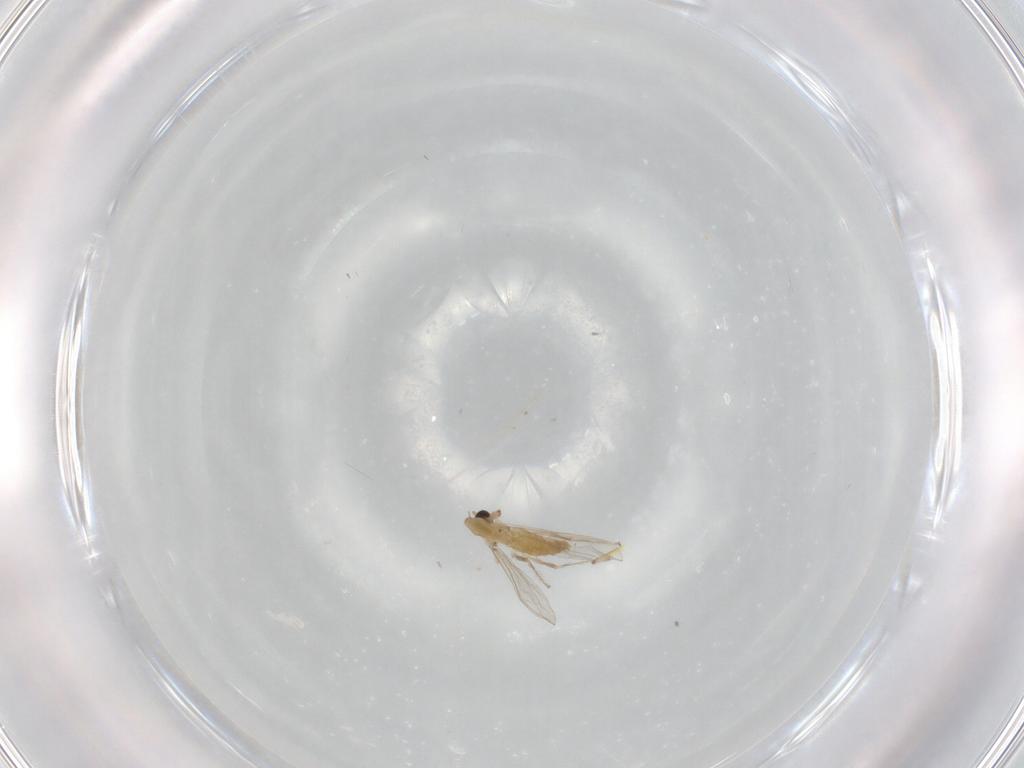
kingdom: Animalia
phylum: Arthropoda
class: Insecta
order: Diptera
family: Chironomidae
